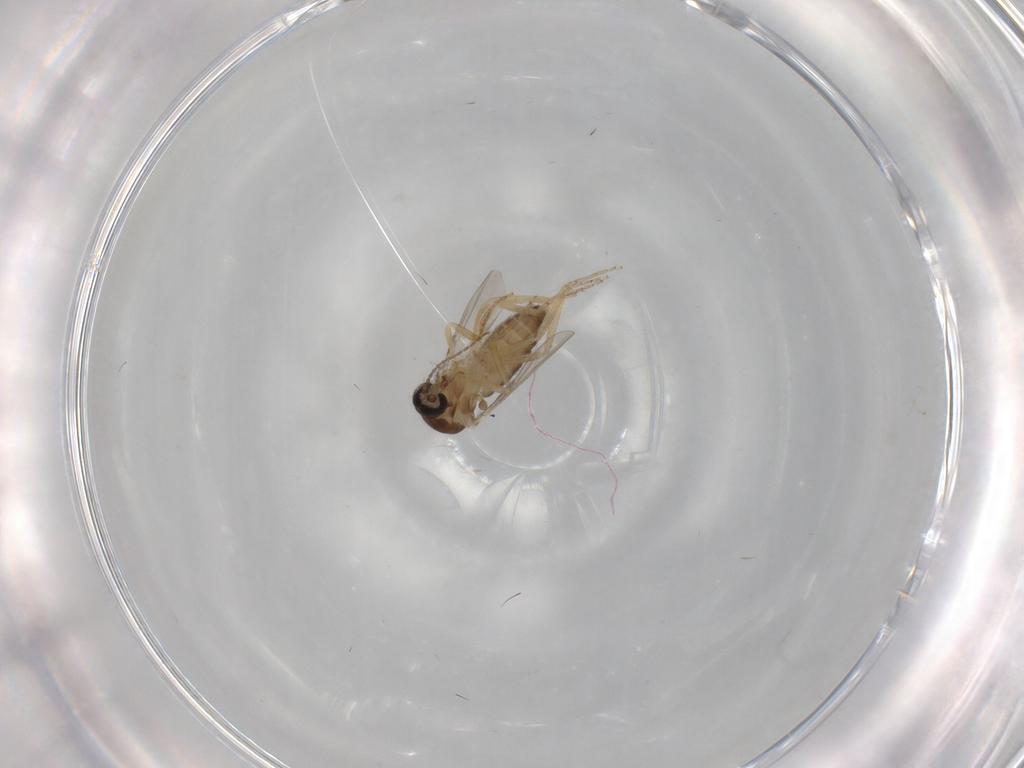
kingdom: Animalia
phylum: Arthropoda
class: Insecta
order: Diptera
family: Ceratopogonidae
